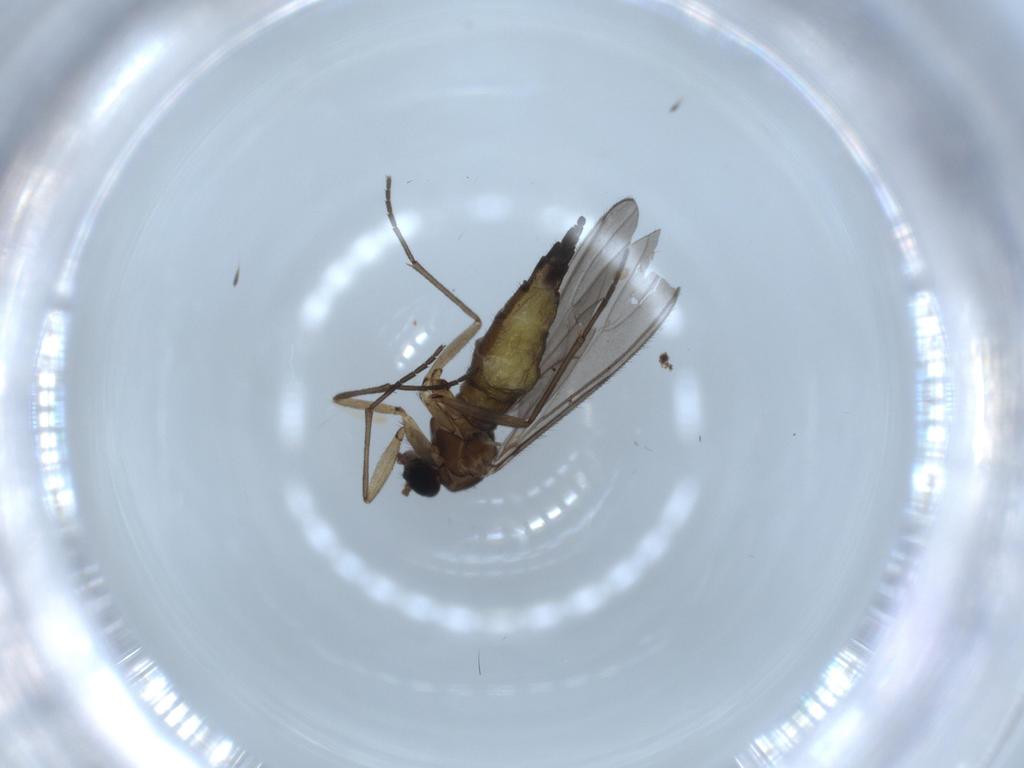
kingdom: Animalia
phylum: Arthropoda
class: Insecta
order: Diptera
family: Sciaridae
